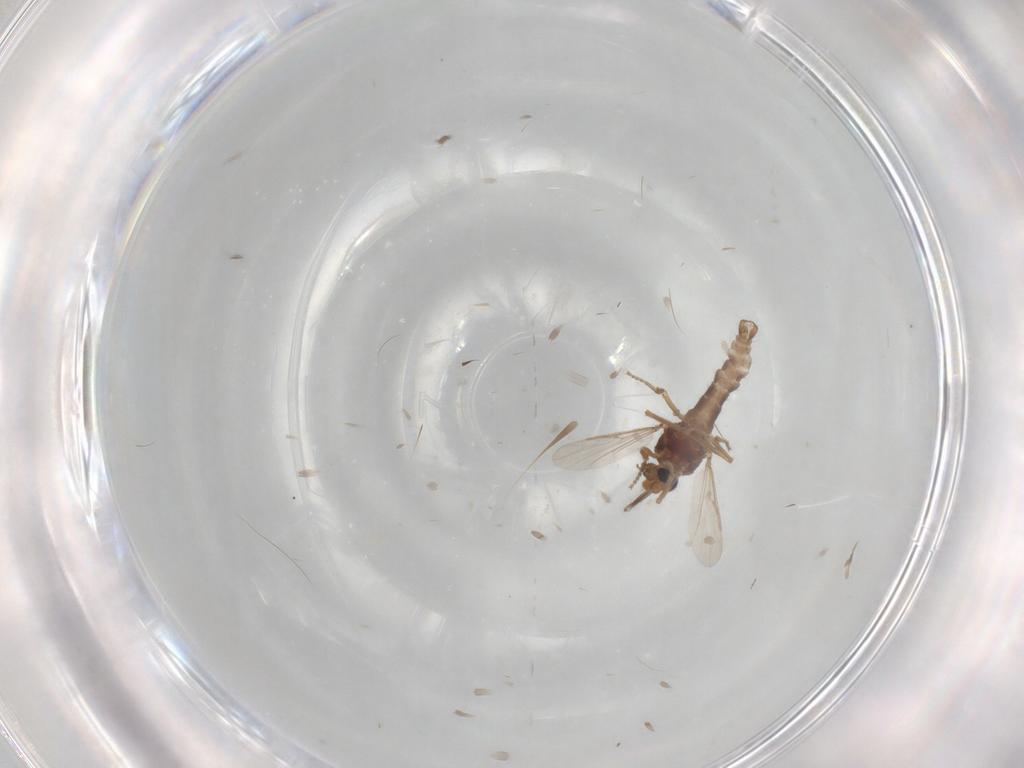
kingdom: Animalia
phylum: Arthropoda
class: Insecta
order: Diptera
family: Ceratopogonidae
